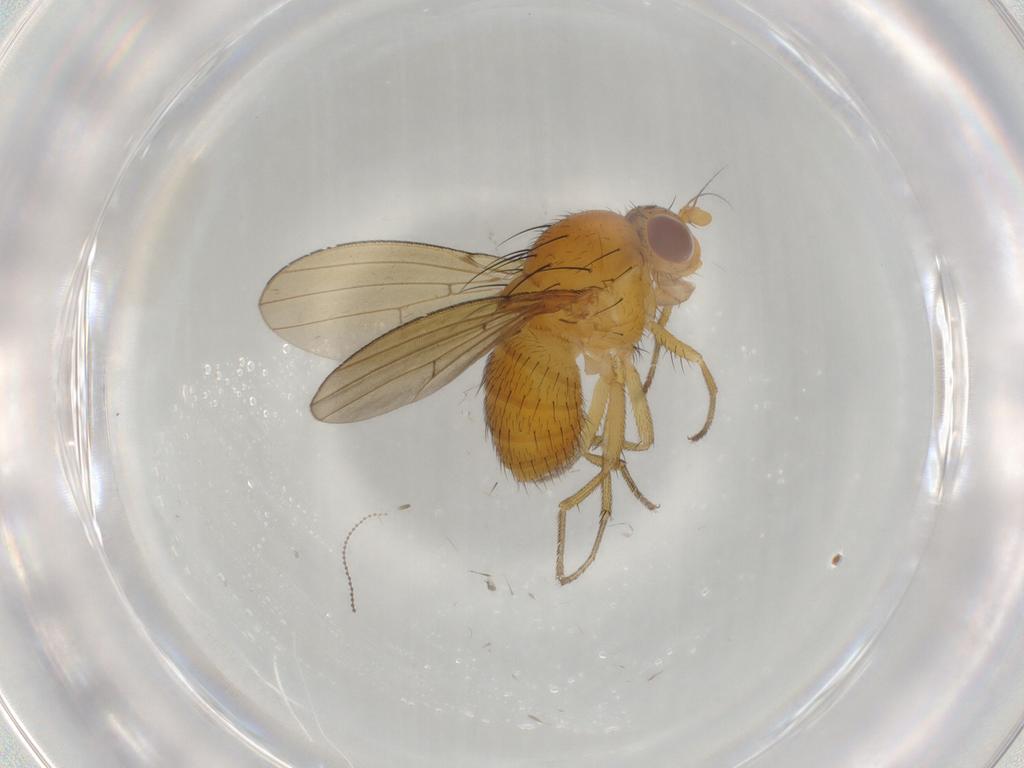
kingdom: Animalia
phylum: Arthropoda
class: Insecta
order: Diptera
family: Cecidomyiidae
